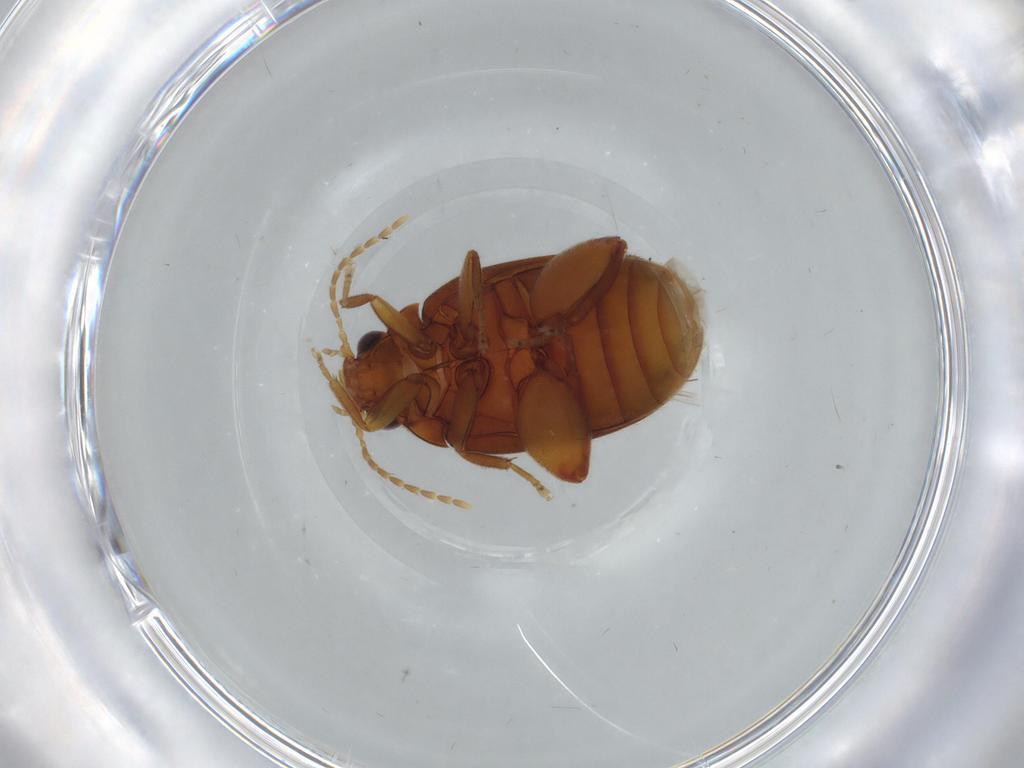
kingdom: Animalia
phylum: Arthropoda
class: Insecta
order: Coleoptera
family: Scirtidae
